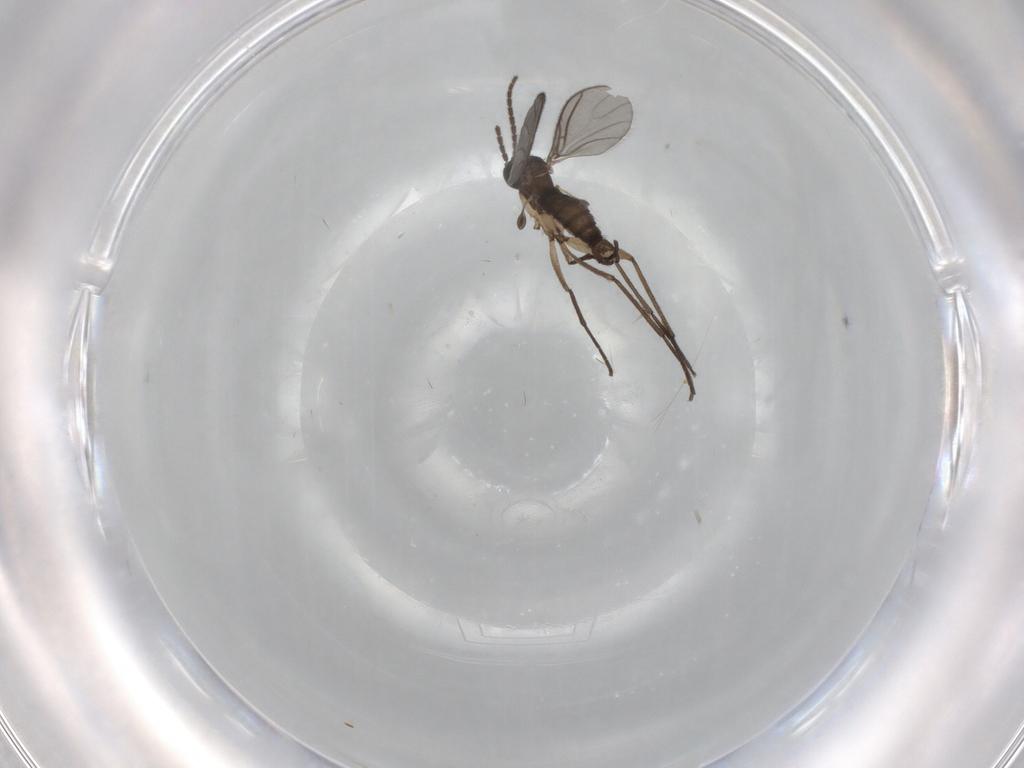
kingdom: Animalia
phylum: Arthropoda
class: Insecta
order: Diptera
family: Sciaridae
